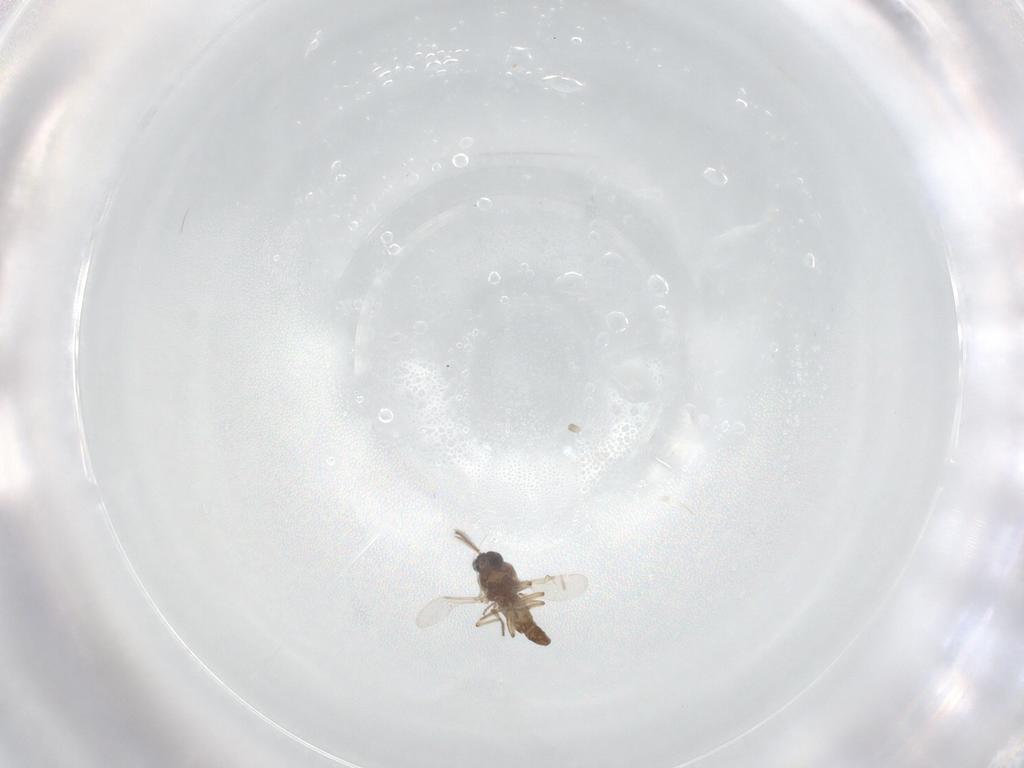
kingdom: Animalia
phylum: Arthropoda
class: Insecta
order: Diptera
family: Ceratopogonidae
